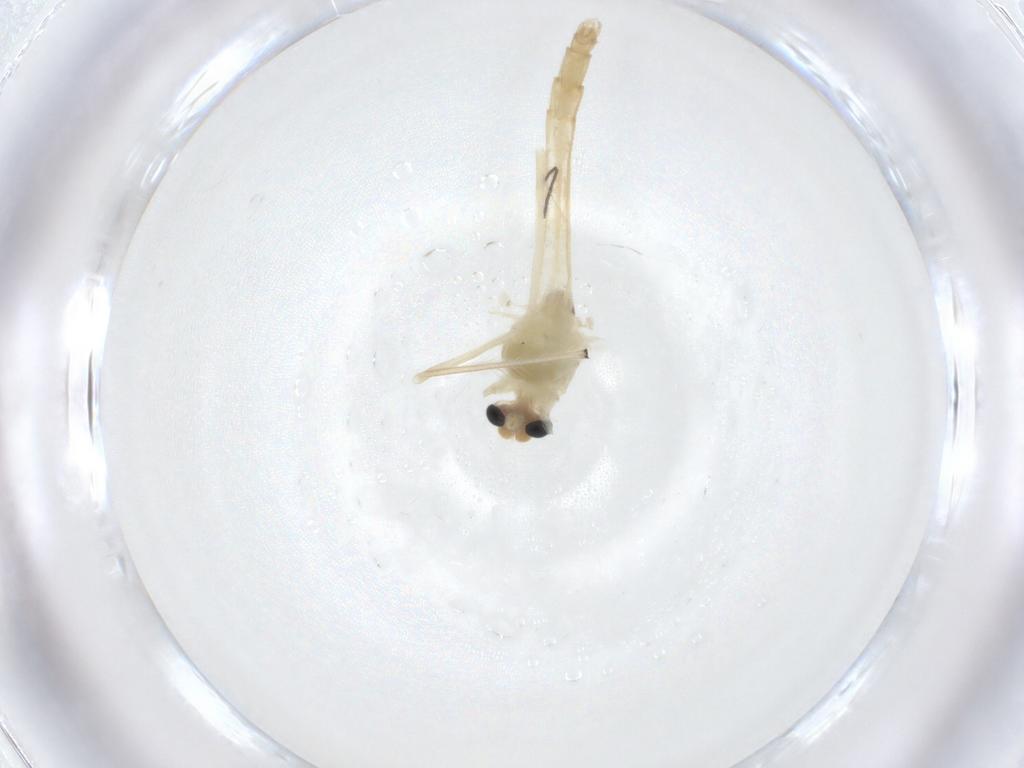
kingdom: Animalia
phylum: Arthropoda
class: Insecta
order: Diptera
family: Chironomidae
